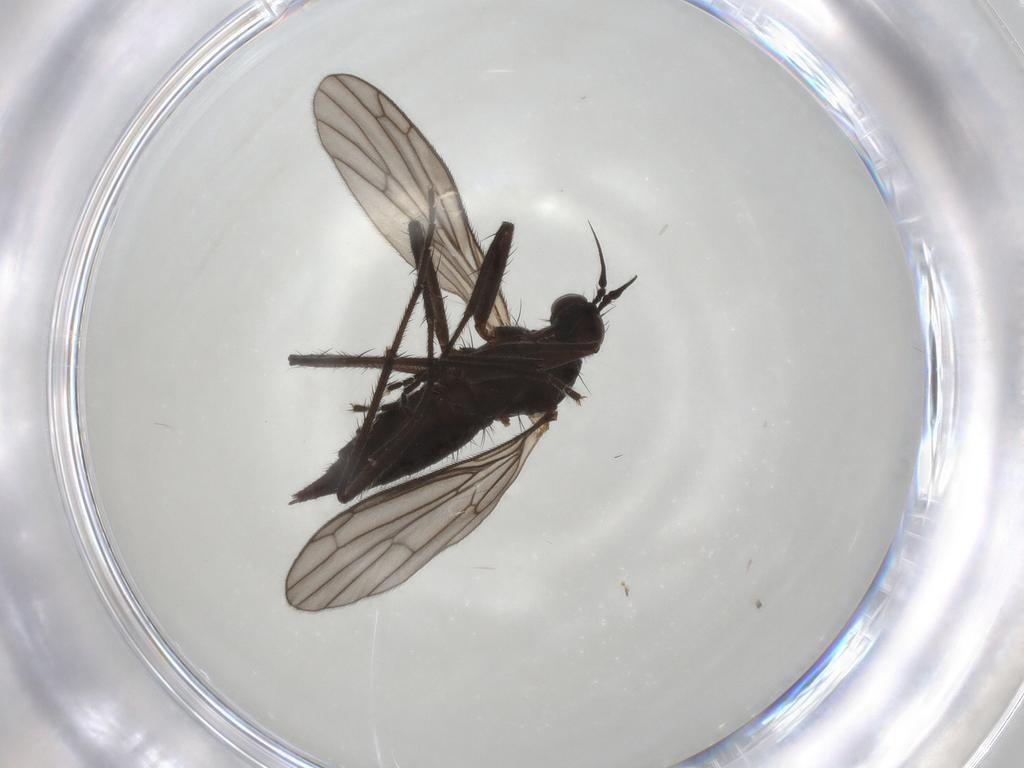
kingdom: Animalia
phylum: Arthropoda
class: Insecta
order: Diptera
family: Empididae
